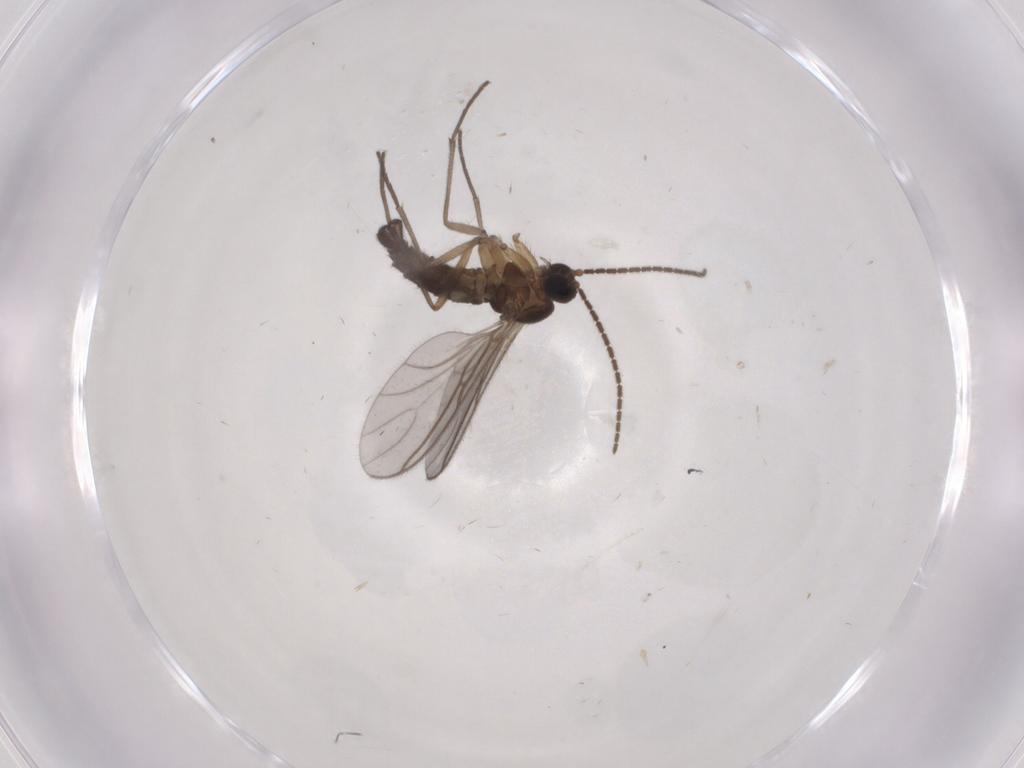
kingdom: Animalia
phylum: Arthropoda
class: Insecta
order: Diptera
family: Sciaridae
